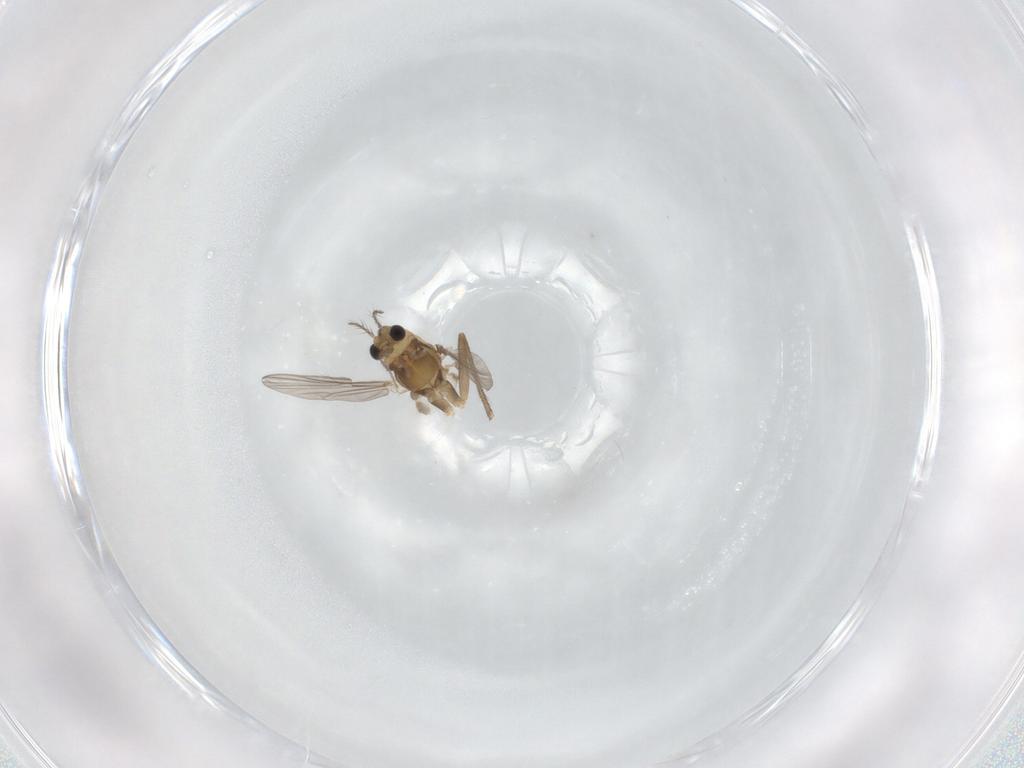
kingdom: Animalia
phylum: Arthropoda
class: Insecta
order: Diptera
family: Chironomidae
